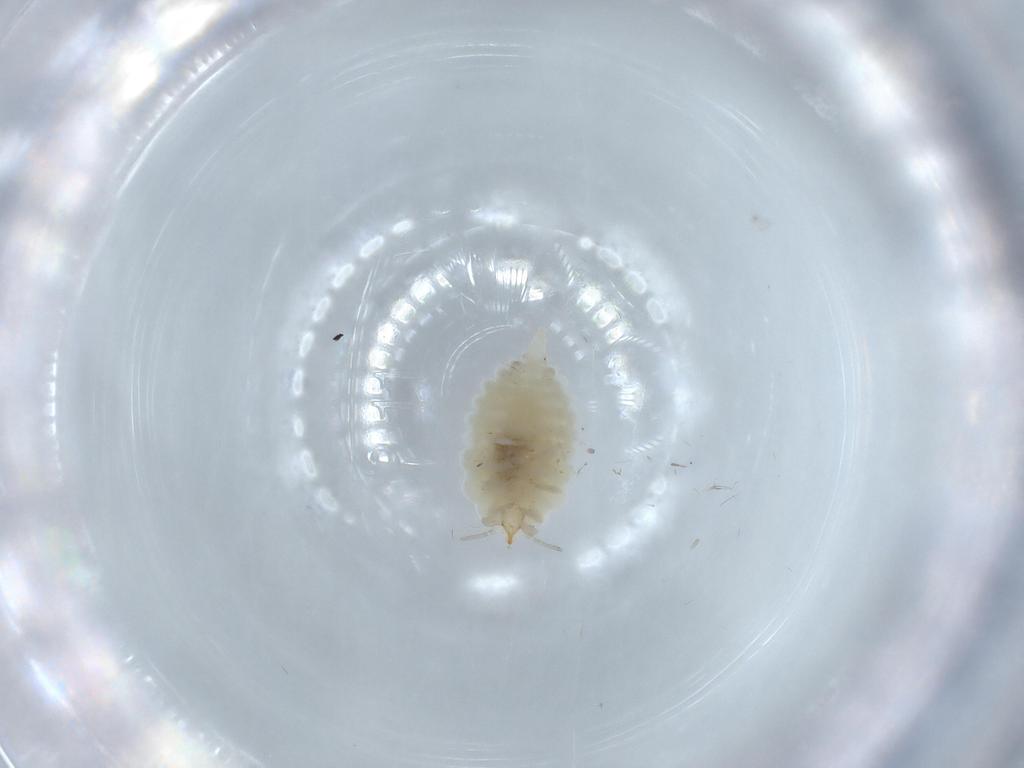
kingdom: Animalia
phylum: Arthropoda
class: Insecta
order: Neuroptera
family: Coniopterygidae
